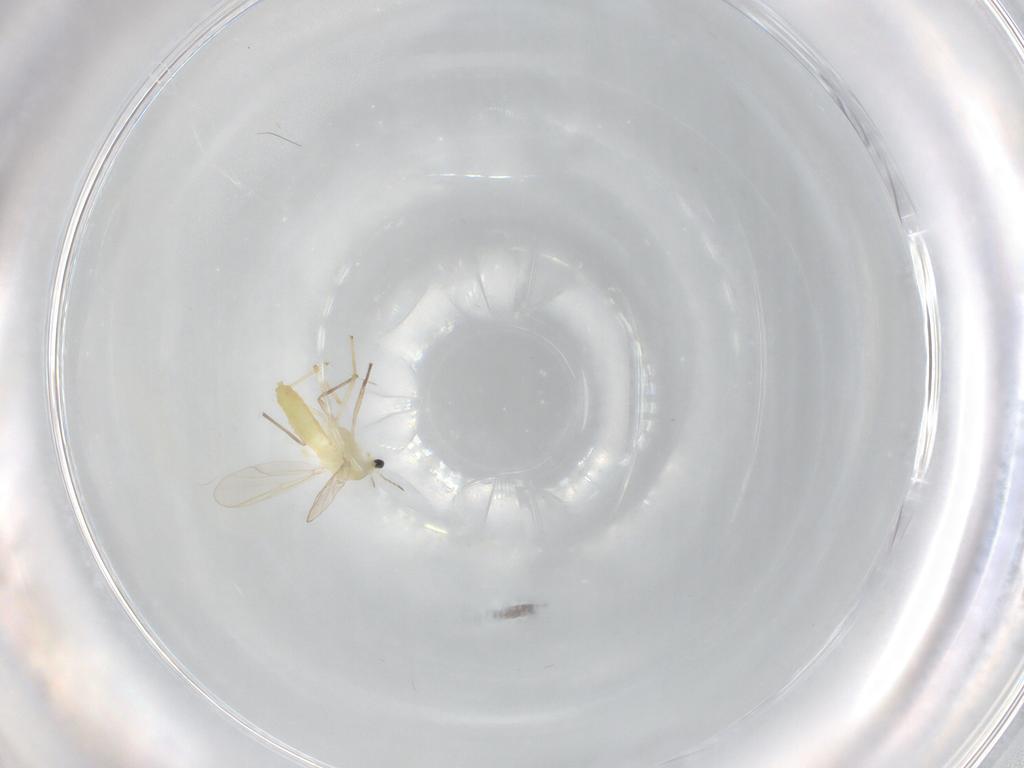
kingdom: Animalia
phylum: Arthropoda
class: Insecta
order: Diptera
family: Chironomidae
